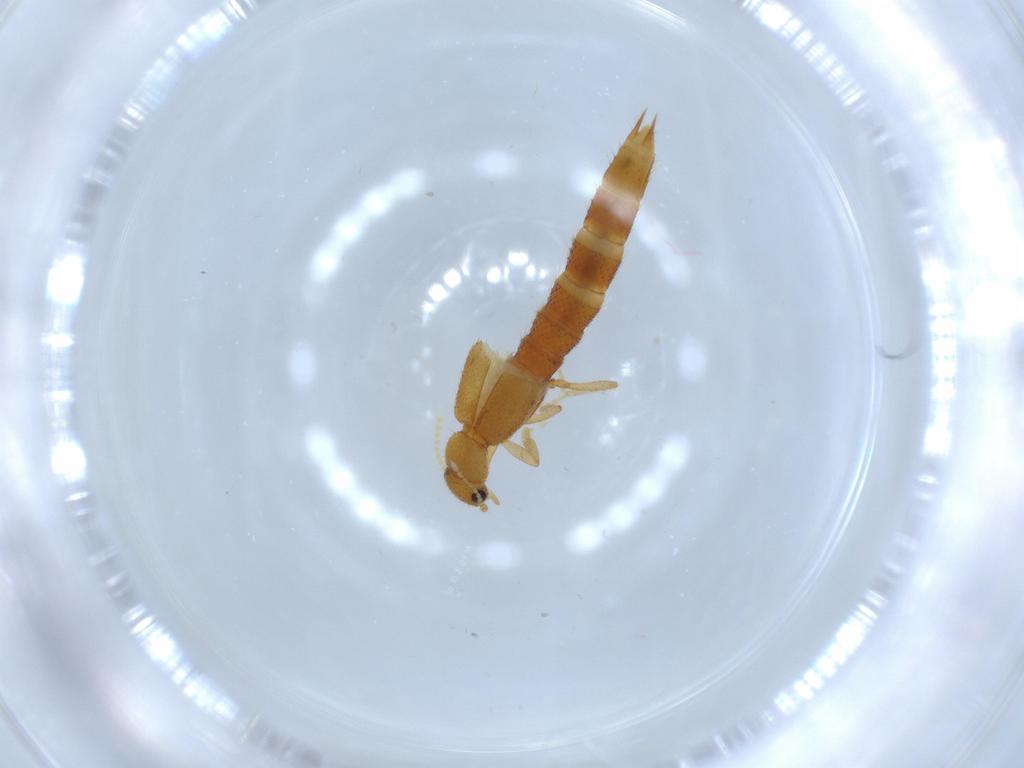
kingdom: Animalia
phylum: Arthropoda
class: Insecta
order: Coleoptera
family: Staphylinidae
